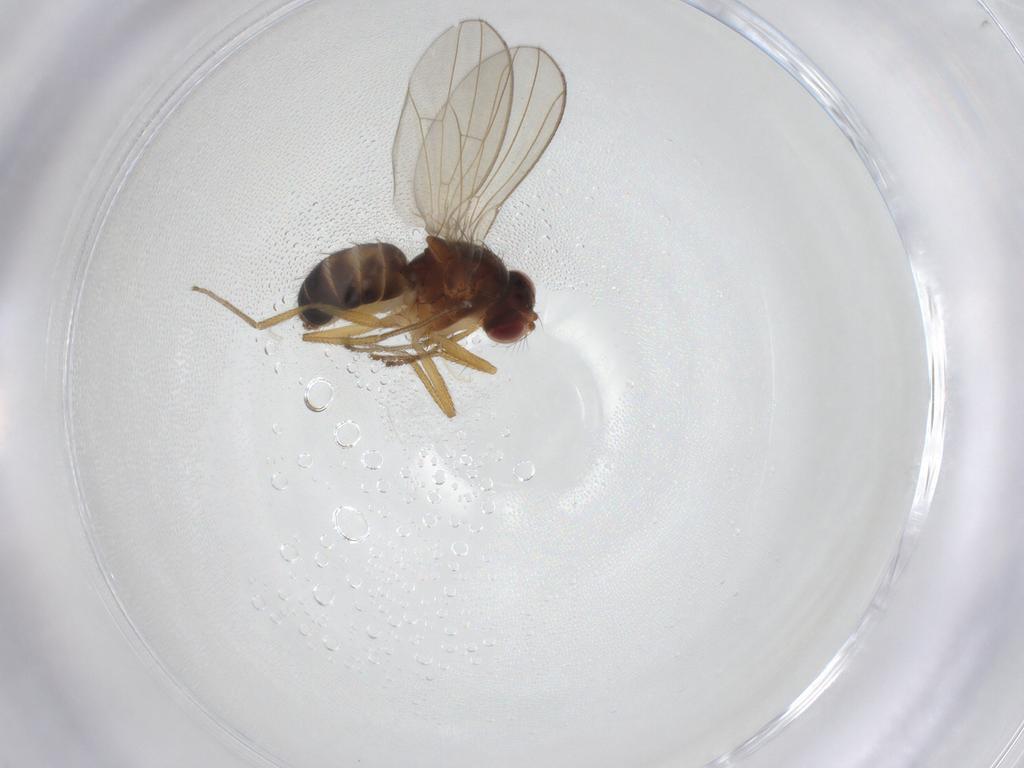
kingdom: Animalia
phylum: Arthropoda
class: Insecta
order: Diptera
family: Drosophilidae
